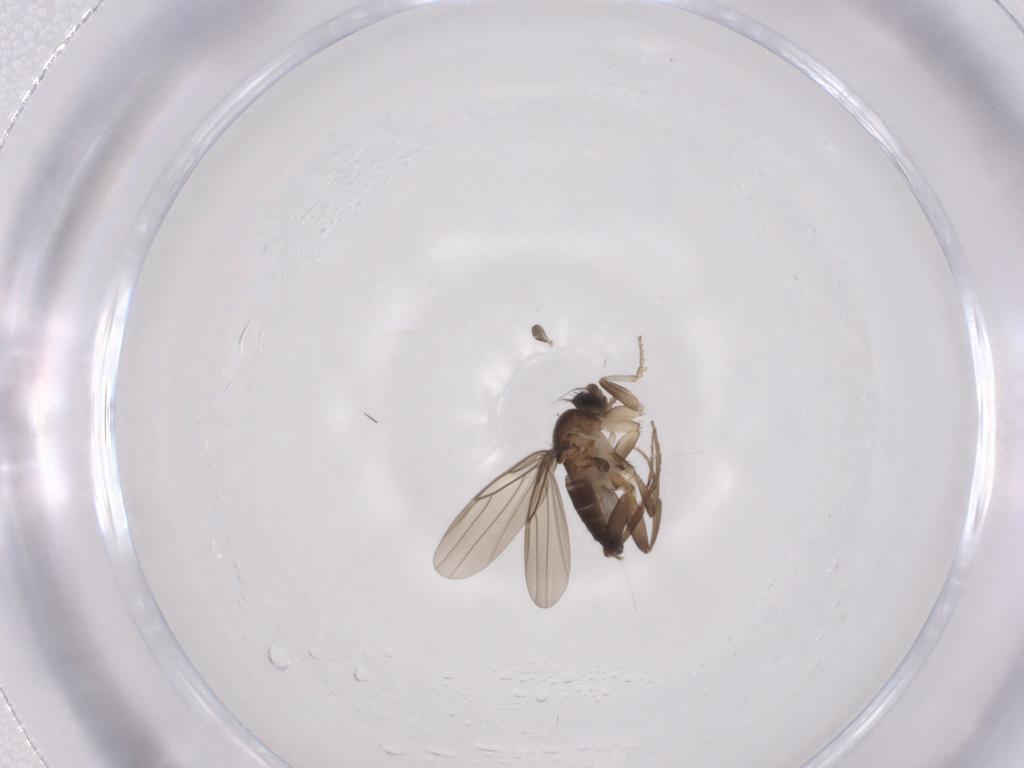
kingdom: Animalia
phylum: Arthropoda
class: Insecta
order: Diptera
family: Phoridae
